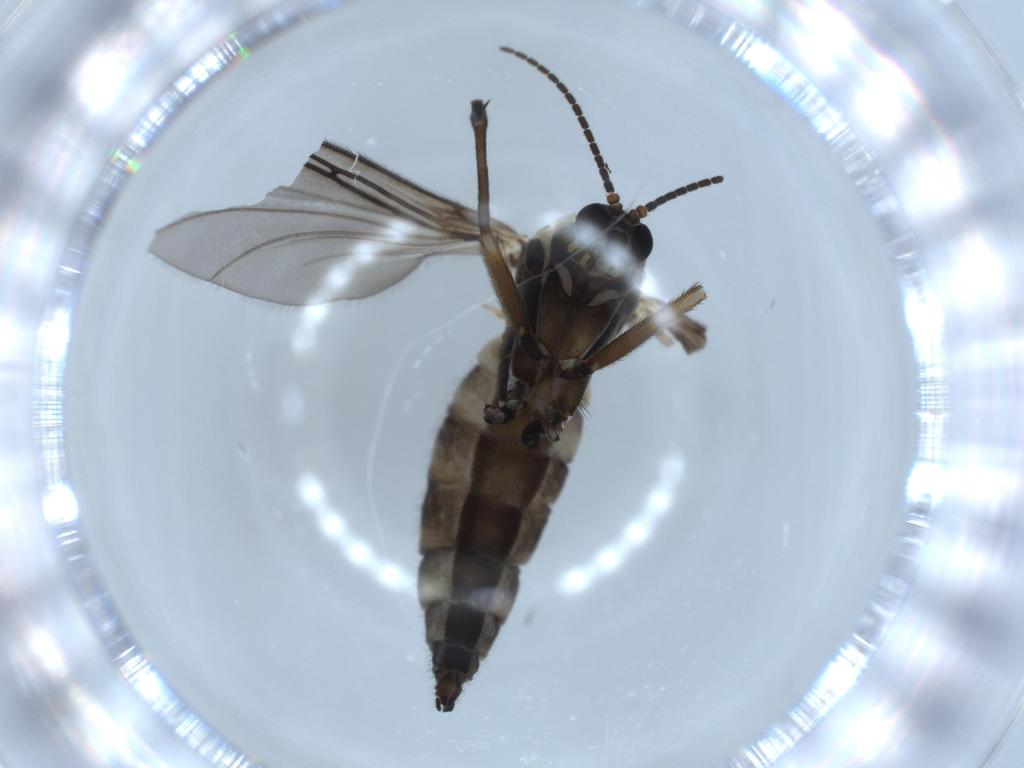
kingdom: Animalia
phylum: Arthropoda
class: Insecta
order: Diptera
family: Sciaridae
